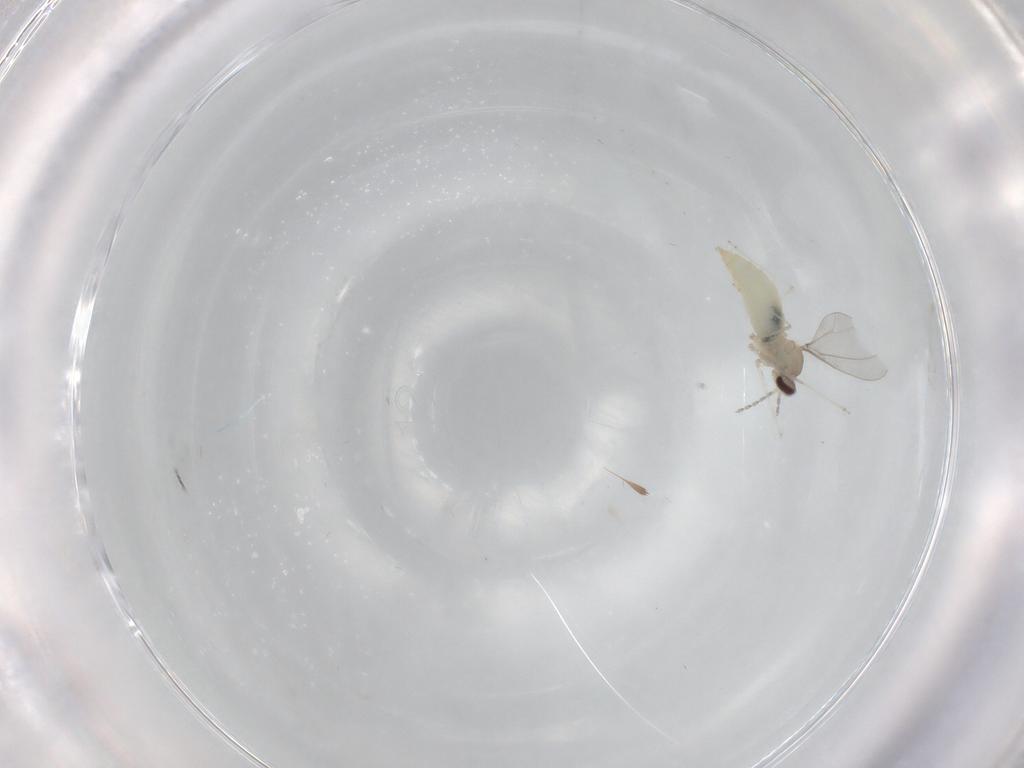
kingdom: Animalia
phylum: Arthropoda
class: Insecta
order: Diptera
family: Cecidomyiidae
